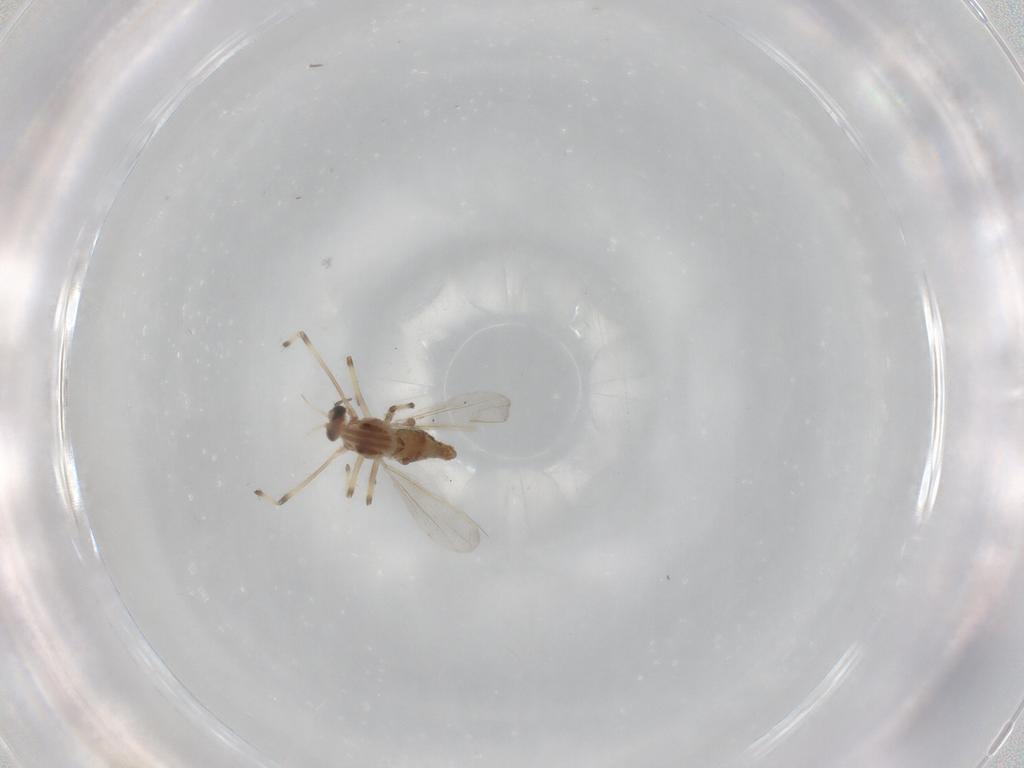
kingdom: Animalia
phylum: Arthropoda
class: Insecta
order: Diptera
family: Chironomidae
